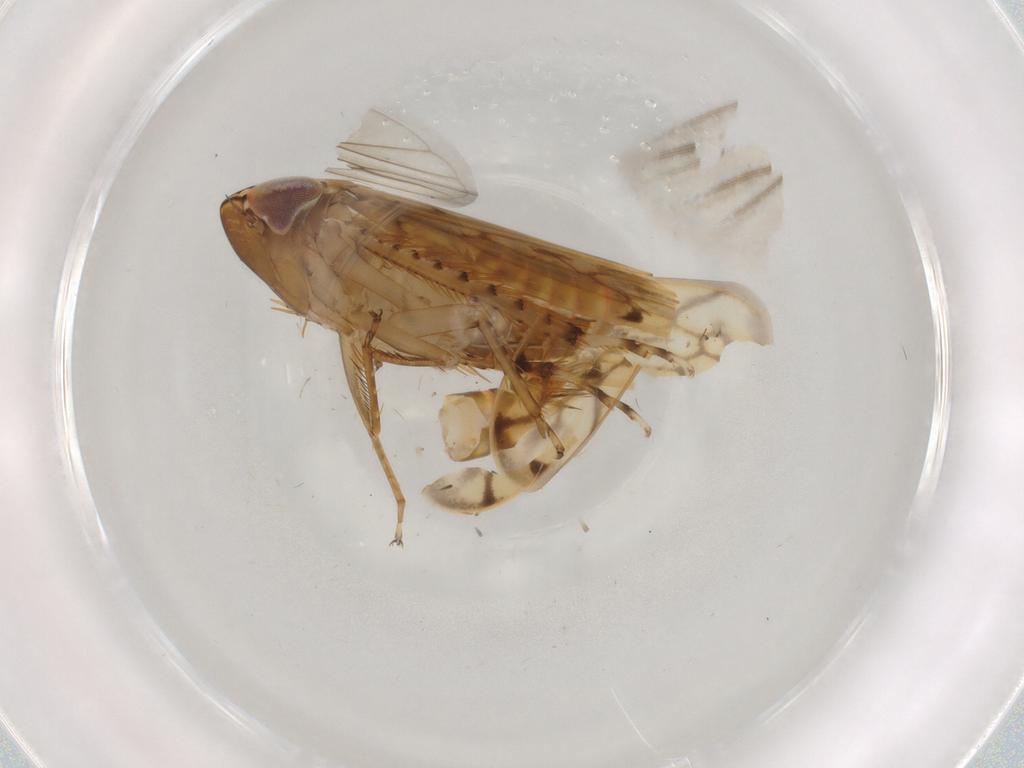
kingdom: Animalia
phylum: Arthropoda
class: Insecta
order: Hemiptera
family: Cicadellidae
